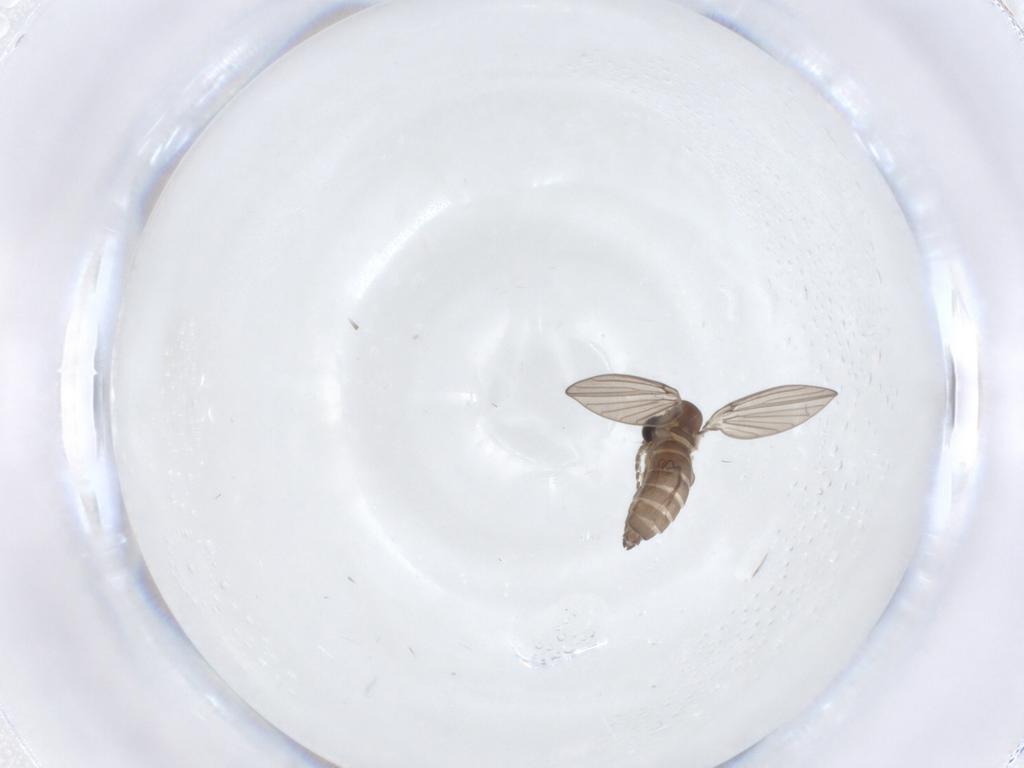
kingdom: Animalia
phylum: Arthropoda
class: Insecta
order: Diptera
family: Psychodidae
